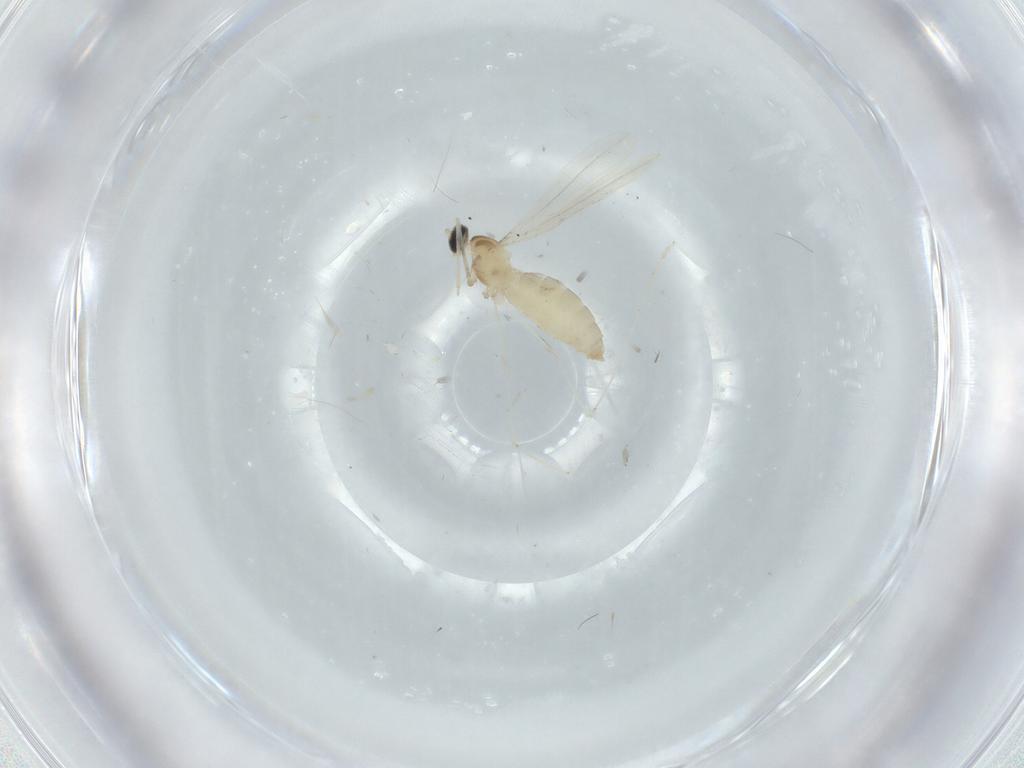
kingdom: Animalia
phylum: Arthropoda
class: Insecta
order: Diptera
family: Cecidomyiidae
